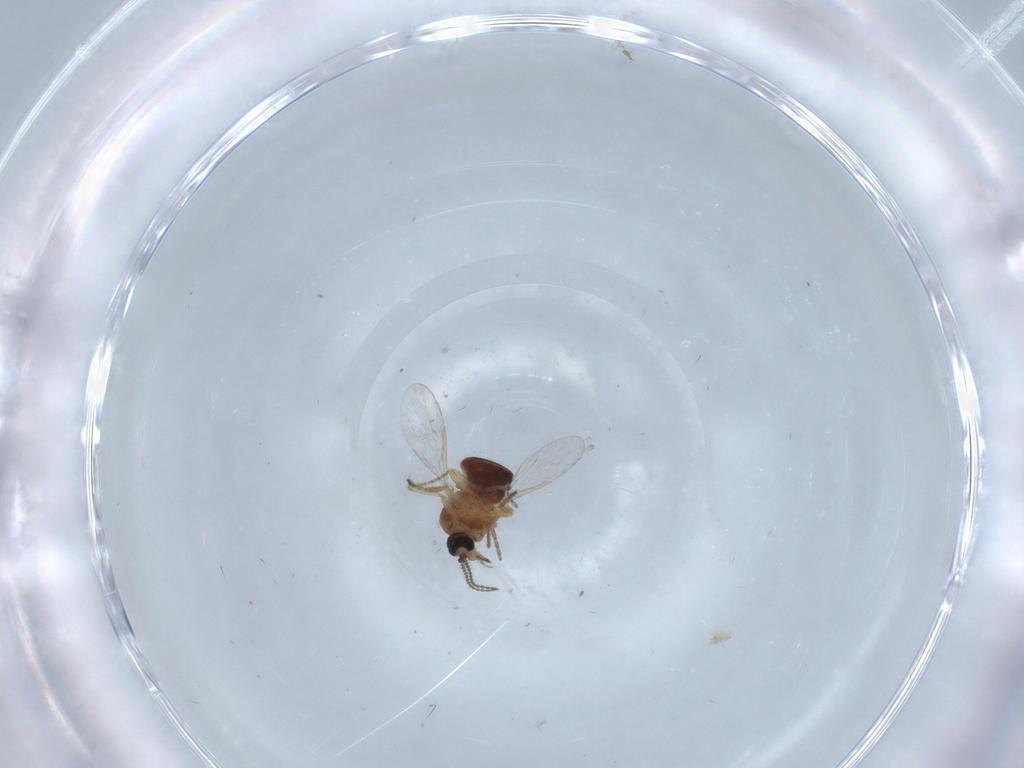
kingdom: Animalia
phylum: Arthropoda
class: Insecta
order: Diptera
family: Ceratopogonidae
